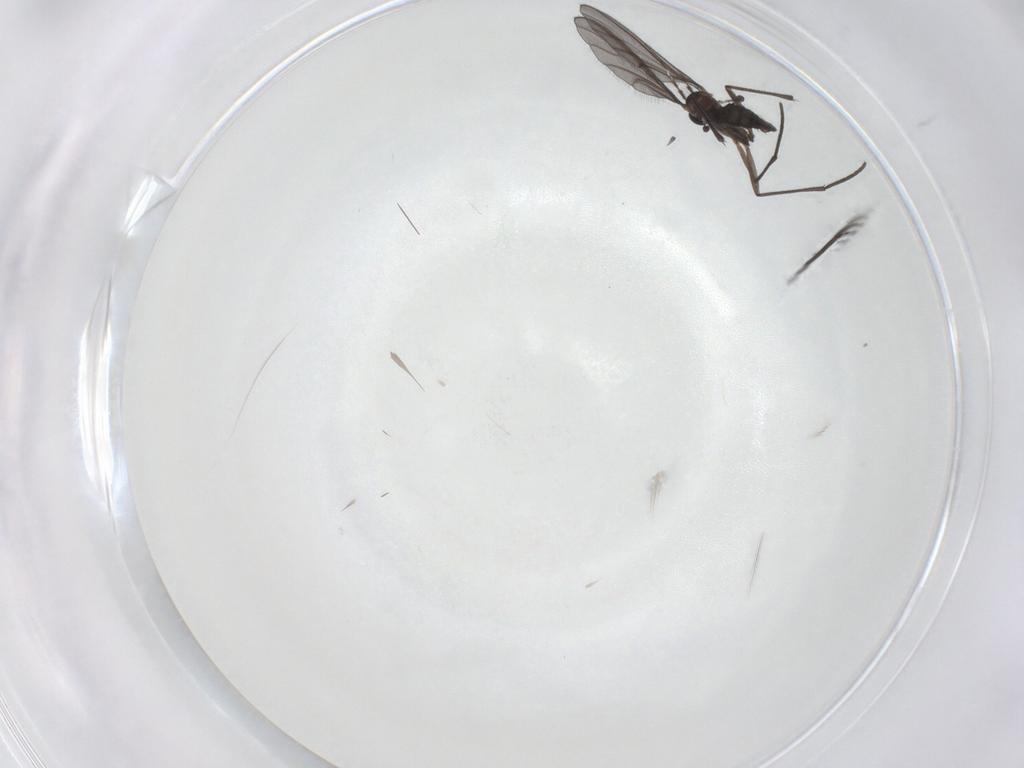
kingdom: Animalia
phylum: Arthropoda
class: Insecta
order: Diptera
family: Sciaridae
